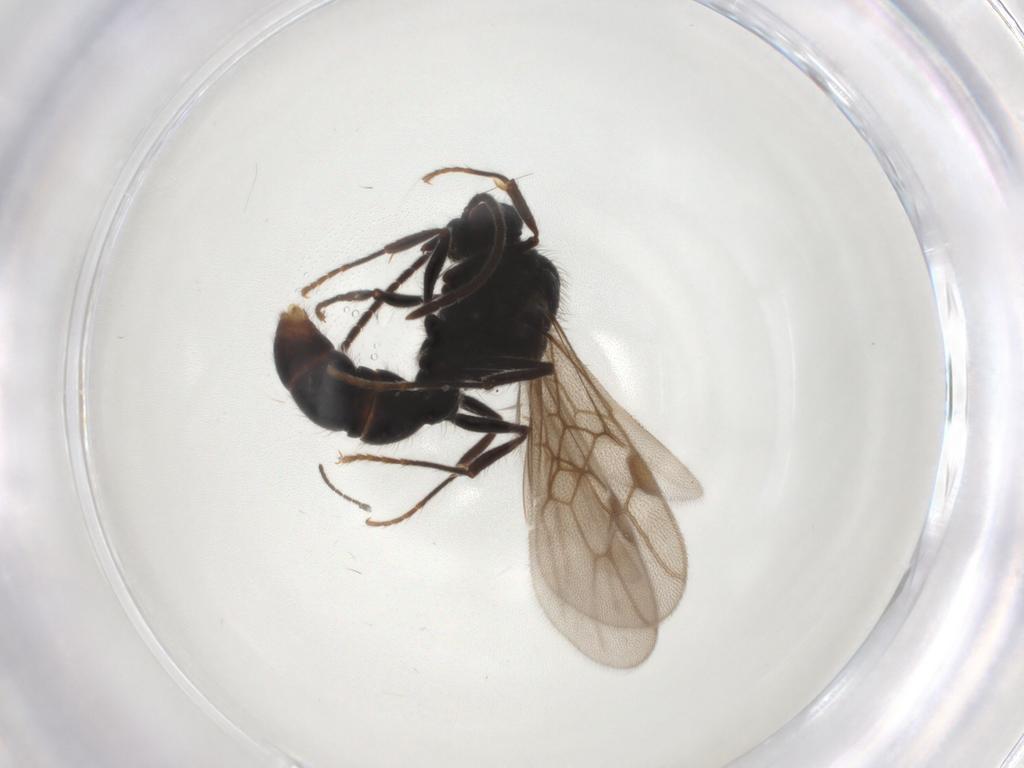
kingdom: Animalia
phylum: Arthropoda
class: Insecta
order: Hymenoptera
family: Formicidae
